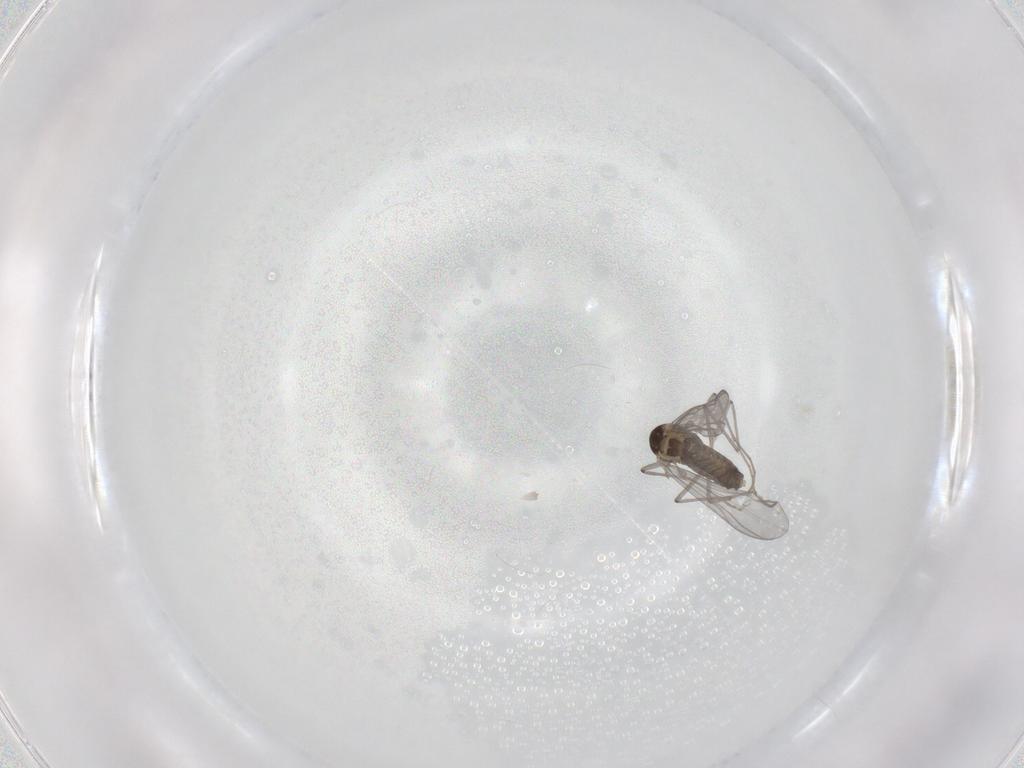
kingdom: Animalia
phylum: Arthropoda
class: Insecta
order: Diptera
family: Chironomidae
